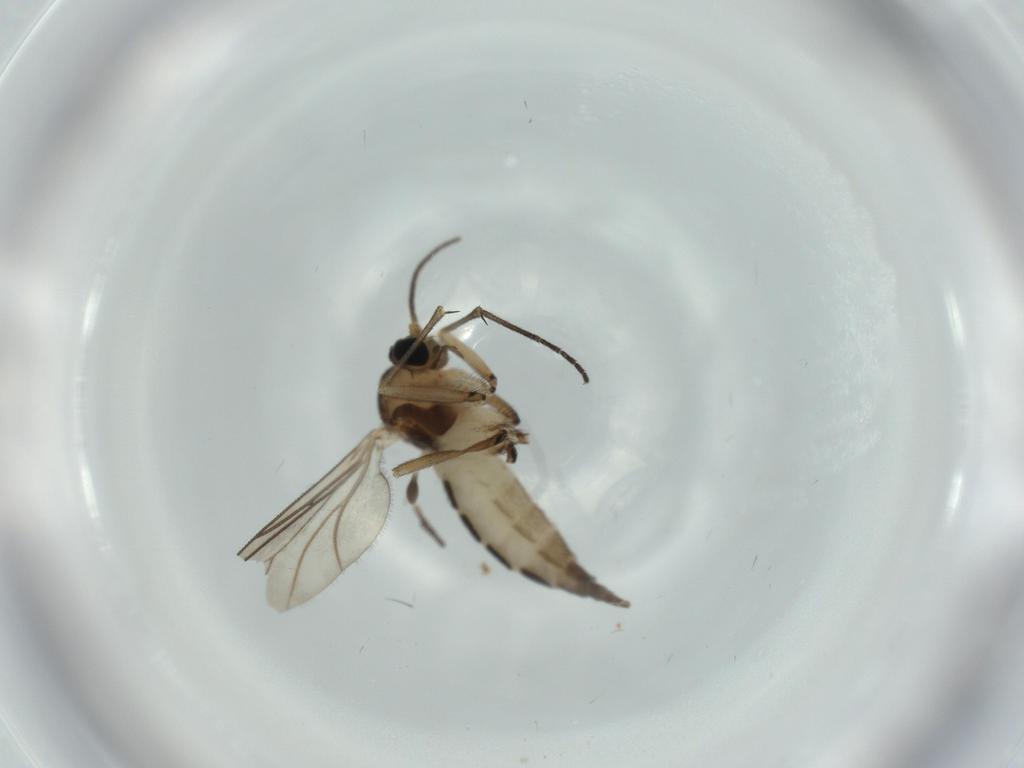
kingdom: Animalia
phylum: Arthropoda
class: Insecta
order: Diptera
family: Sciaridae
